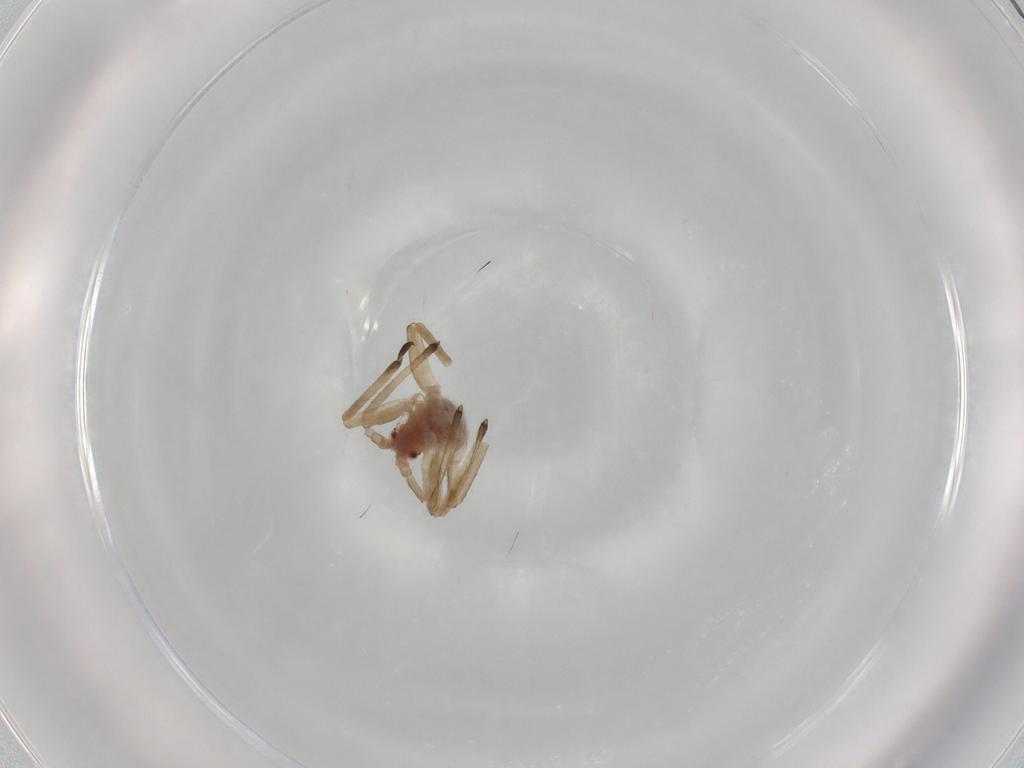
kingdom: Animalia
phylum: Arthropoda
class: Insecta
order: Hemiptera
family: Aphididae
